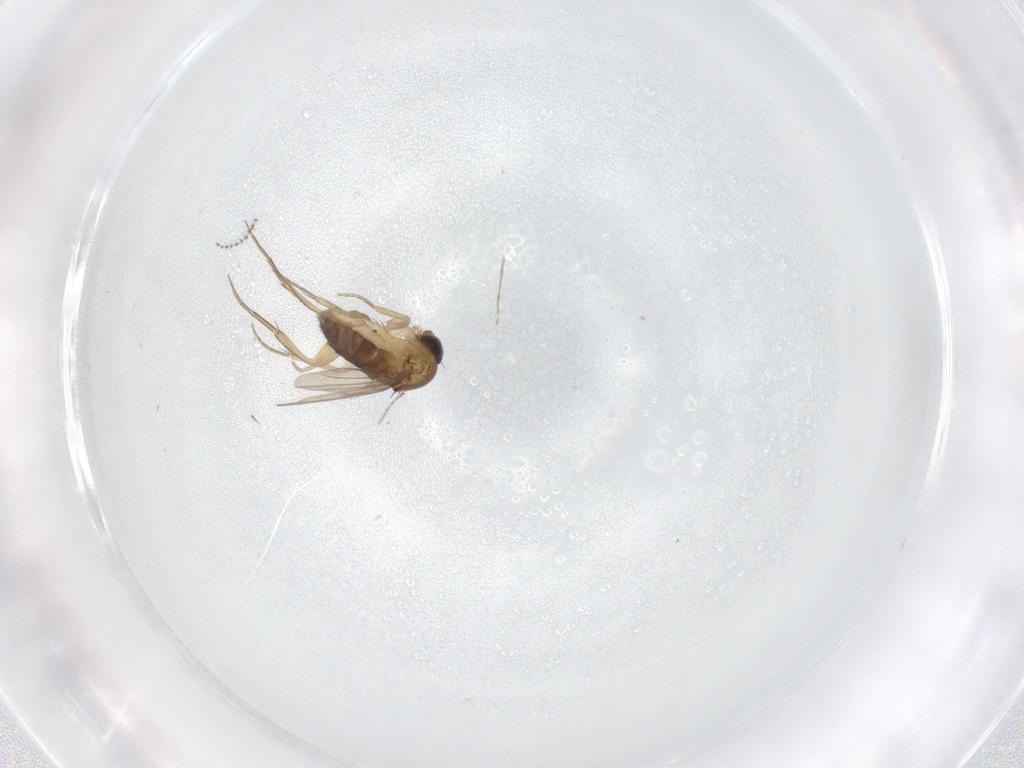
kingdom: Animalia
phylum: Arthropoda
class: Insecta
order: Diptera
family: Phoridae
